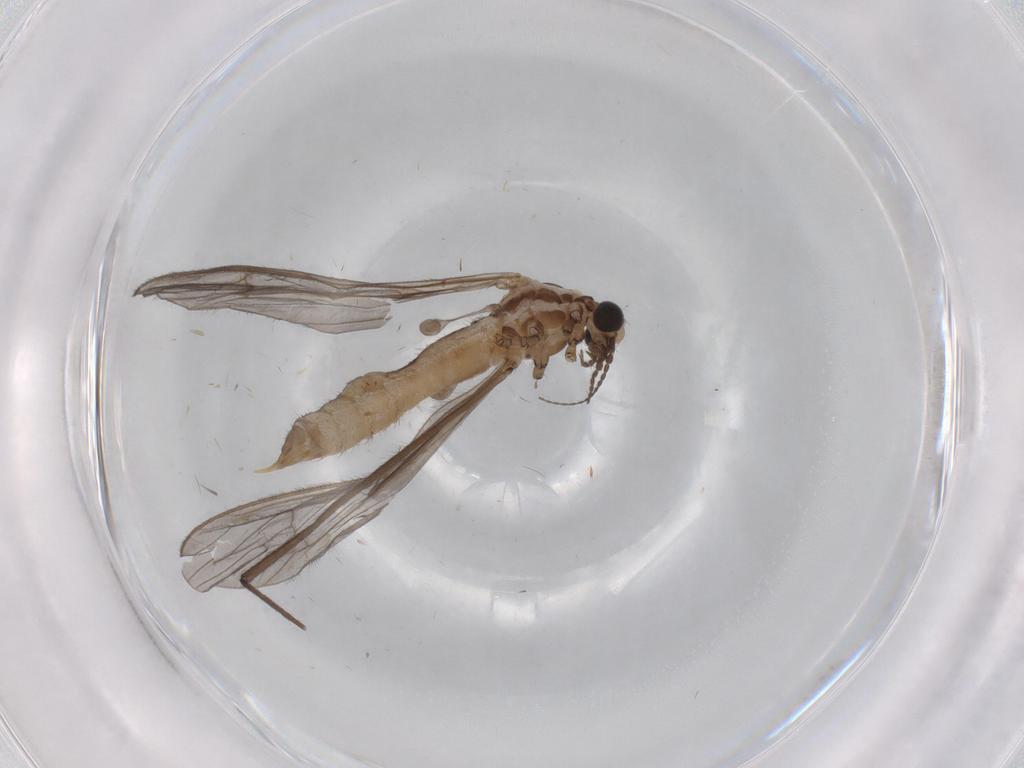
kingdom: Animalia
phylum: Arthropoda
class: Insecta
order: Diptera
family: Limoniidae
